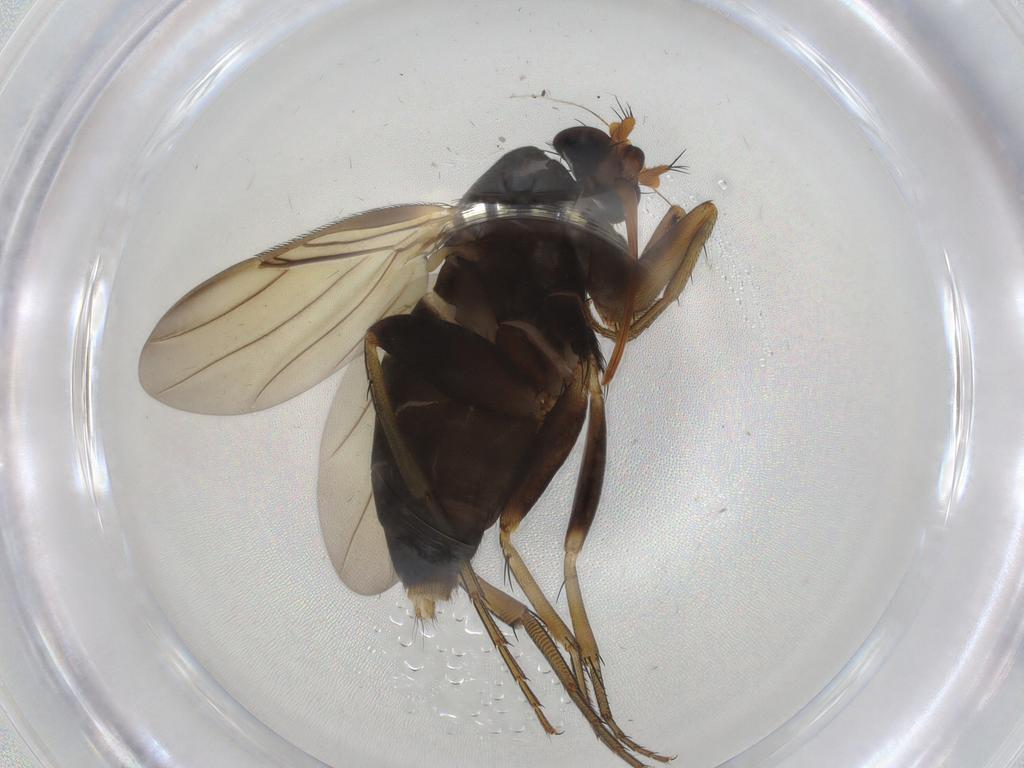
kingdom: Animalia
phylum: Arthropoda
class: Insecta
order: Diptera
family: Phoridae
